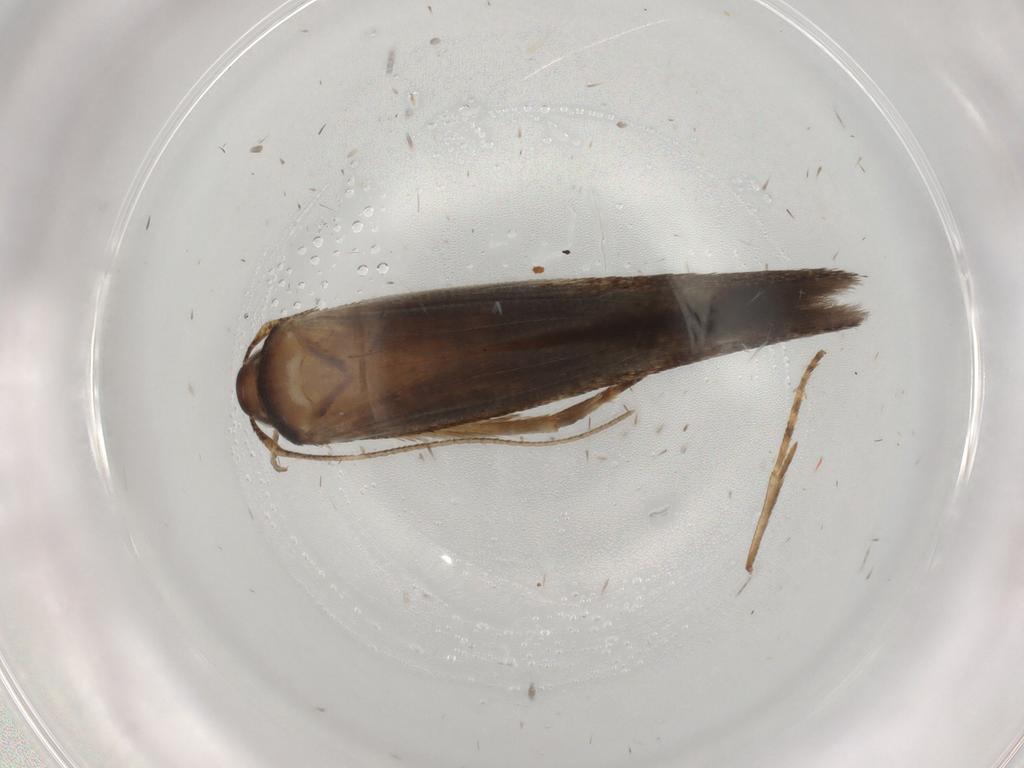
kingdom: Animalia
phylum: Arthropoda
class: Insecta
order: Lepidoptera
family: Cosmopterigidae
